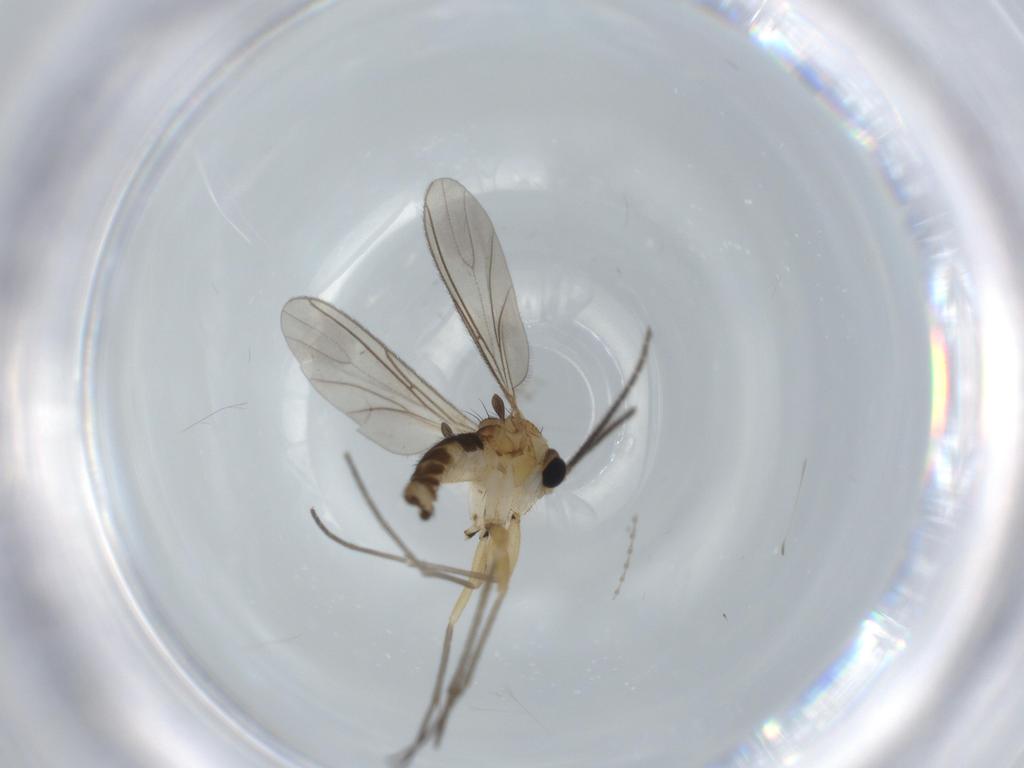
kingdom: Animalia
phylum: Arthropoda
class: Insecta
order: Diptera
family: Sciaridae
